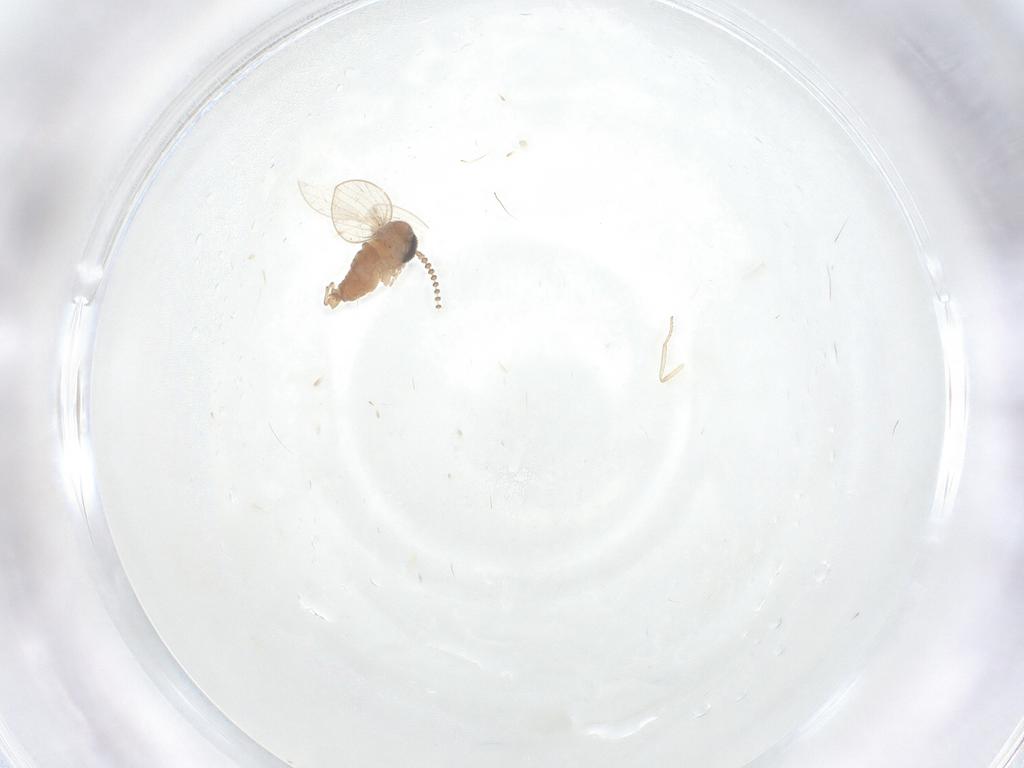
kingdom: Animalia
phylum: Arthropoda
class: Insecta
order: Diptera
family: Psychodidae
